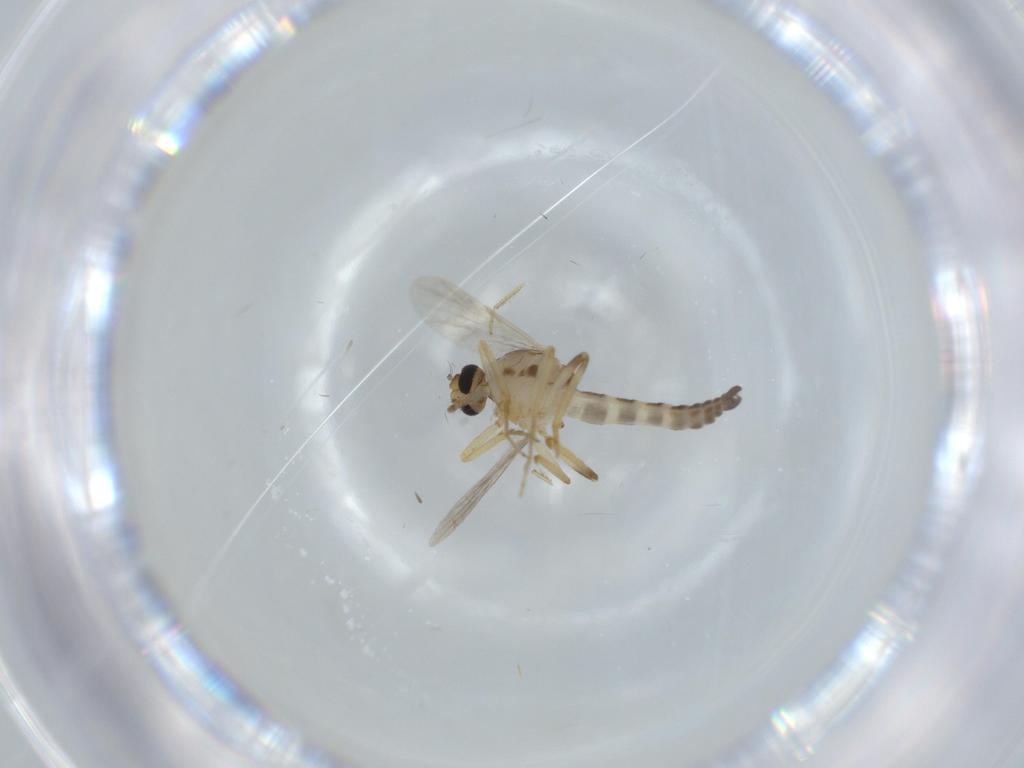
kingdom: Animalia
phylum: Arthropoda
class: Insecta
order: Diptera
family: Ceratopogonidae
